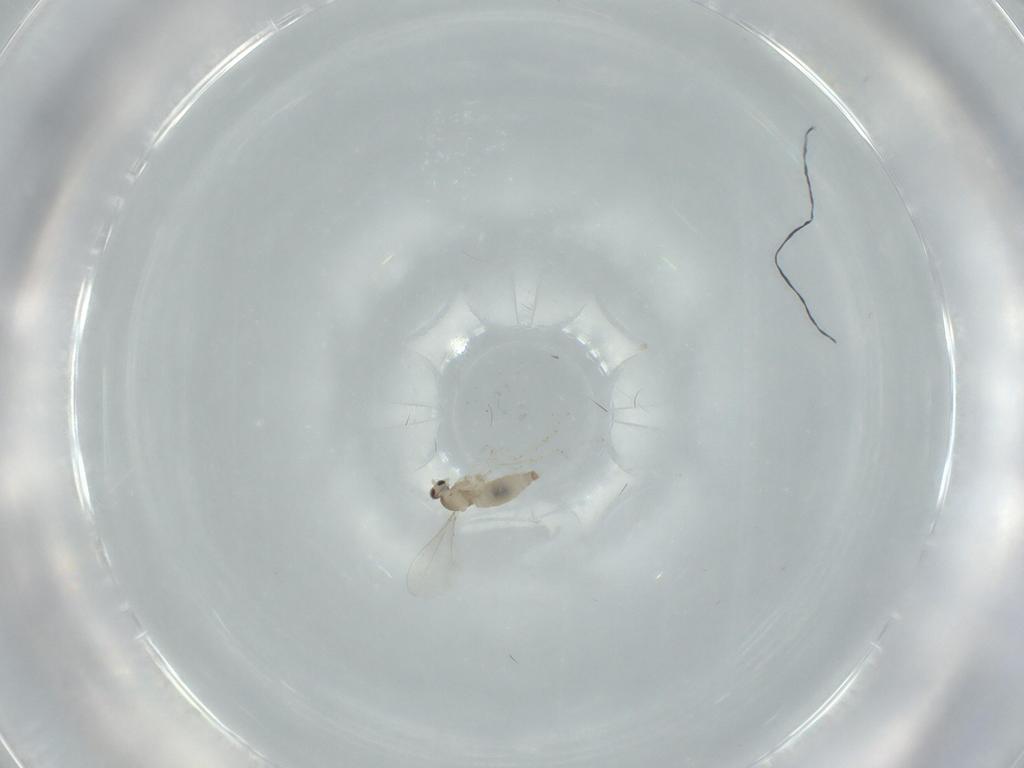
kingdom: Animalia
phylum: Arthropoda
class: Insecta
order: Diptera
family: Cecidomyiidae
